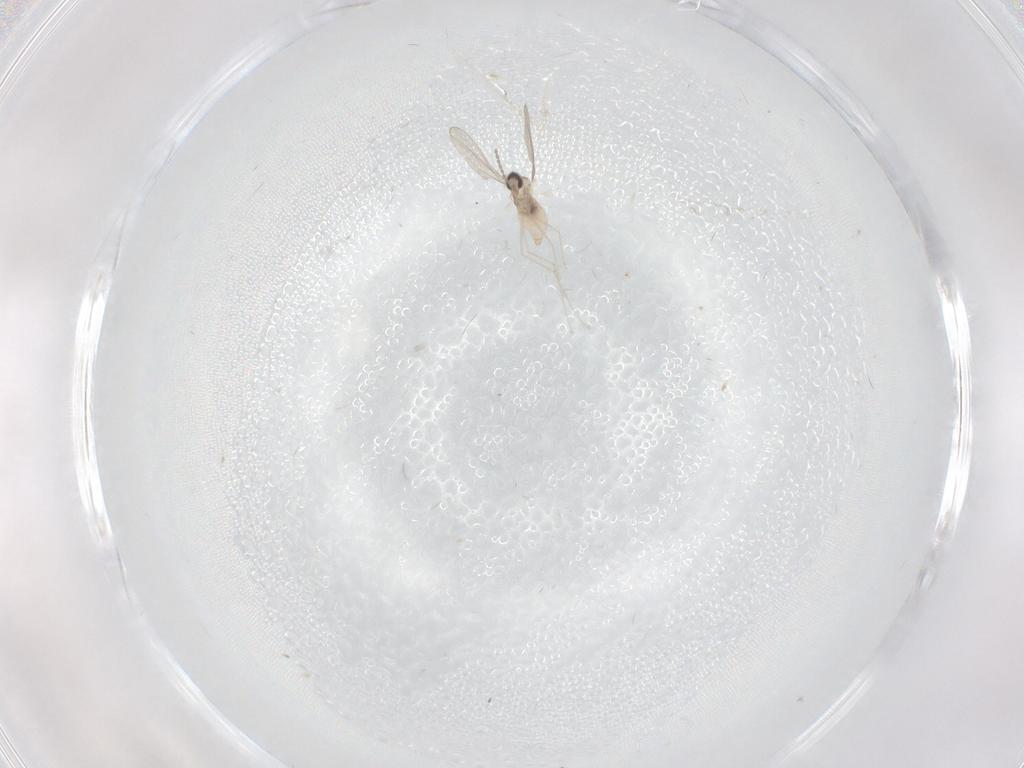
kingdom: Animalia
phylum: Arthropoda
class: Insecta
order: Diptera
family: Cecidomyiidae
